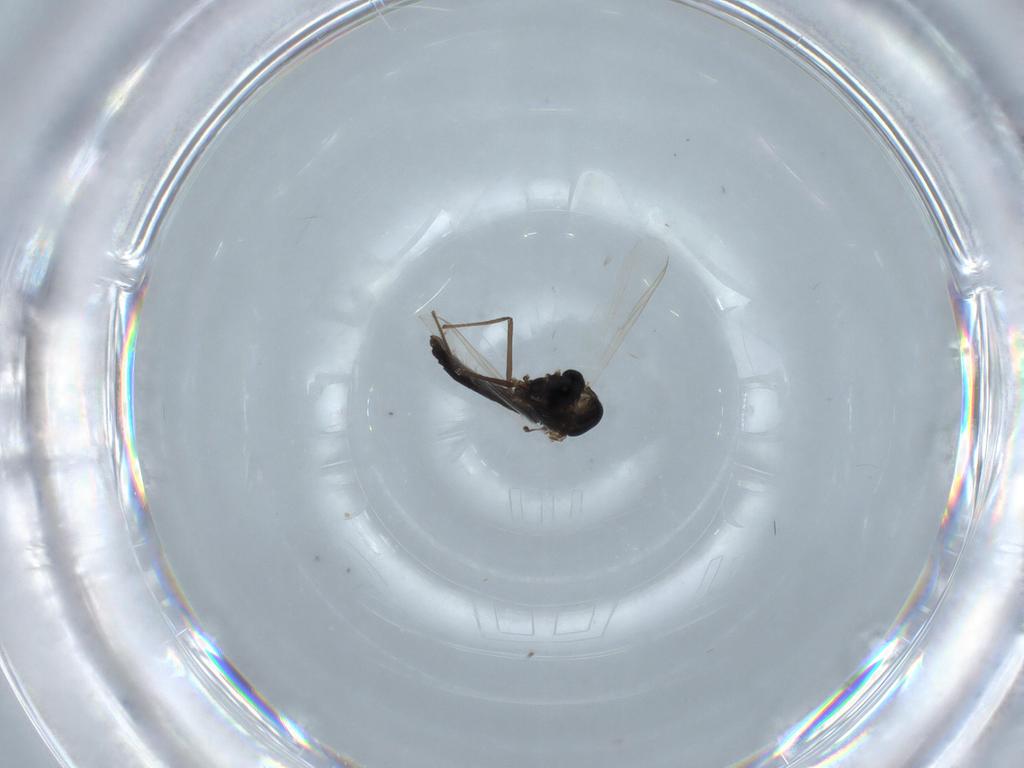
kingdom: Animalia
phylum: Arthropoda
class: Insecta
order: Diptera
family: Chironomidae
